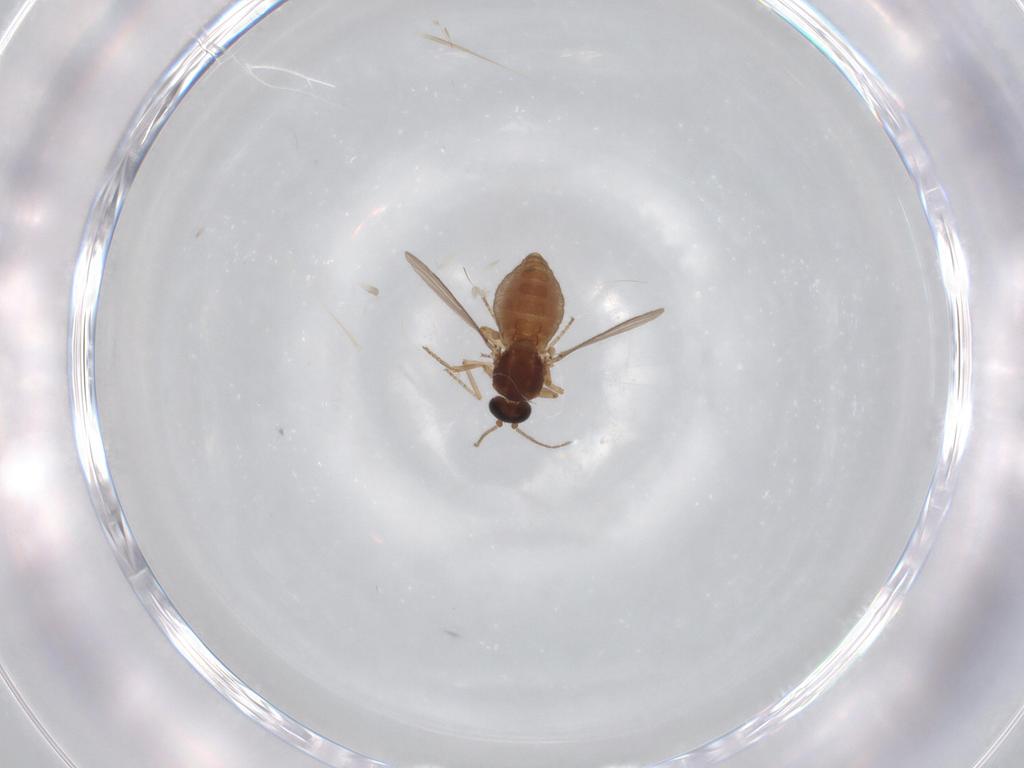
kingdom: Animalia
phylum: Arthropoda
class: Insecta
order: Diptera
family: Ceratopogonidae
